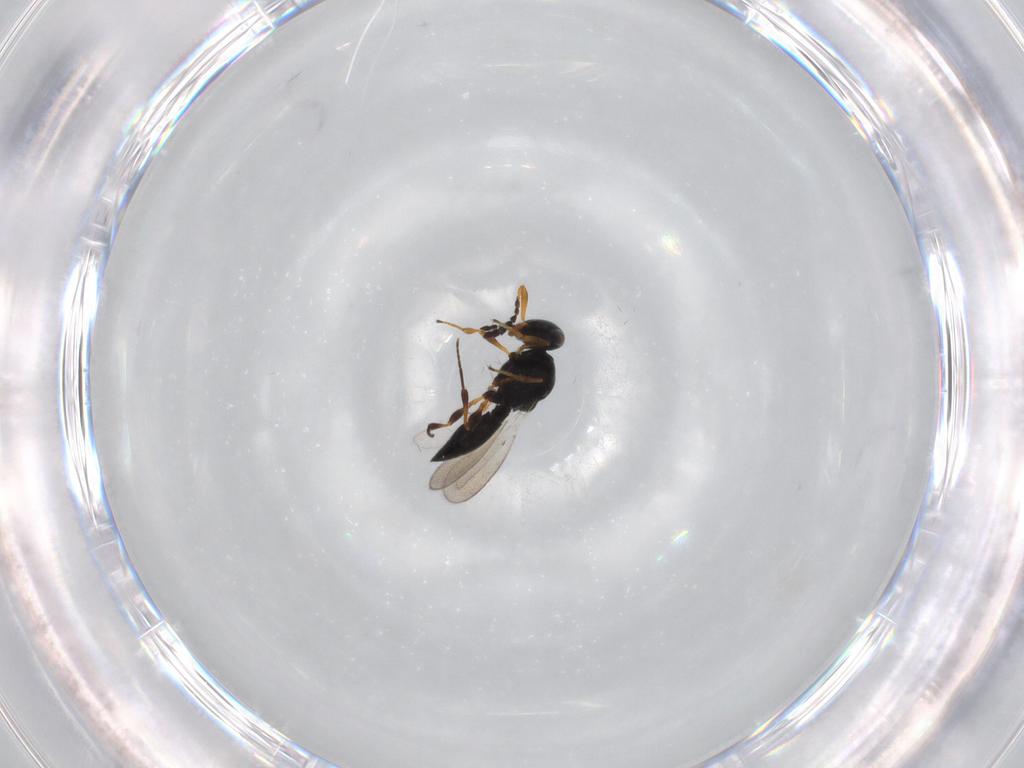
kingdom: Animalia
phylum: Arthropoda
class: Insecta
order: Hymenoptera
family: Platygastridae
